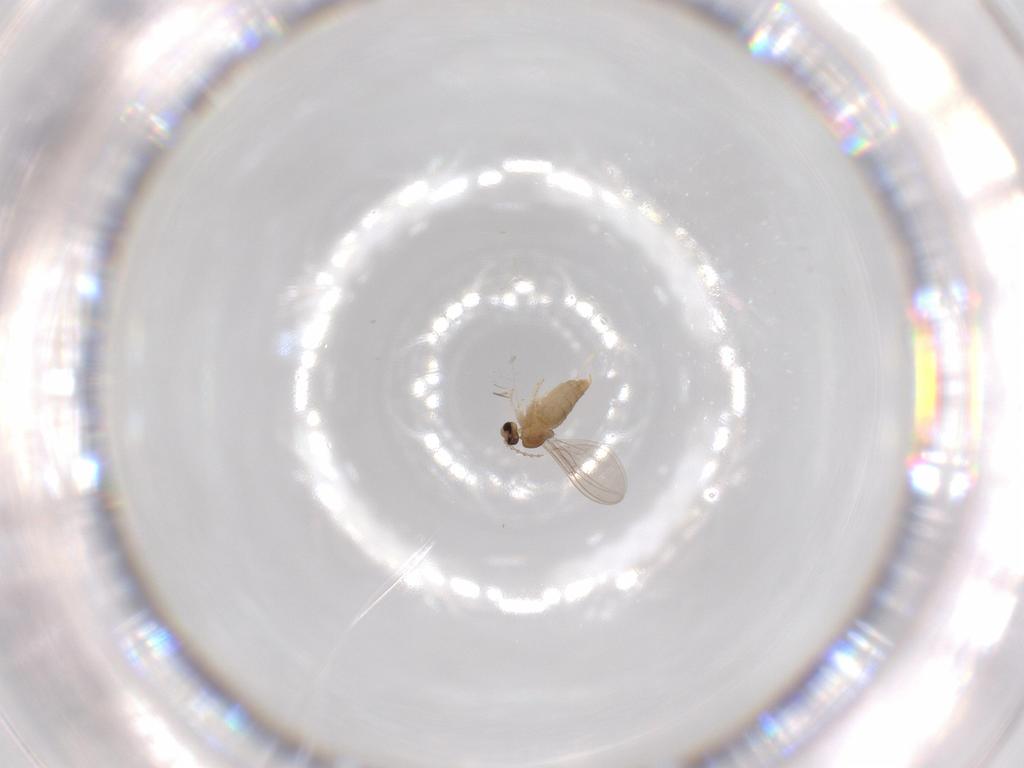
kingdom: Animalia
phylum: Arthropoda
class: Insecta
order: Diptera
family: Cecidomyiidae
